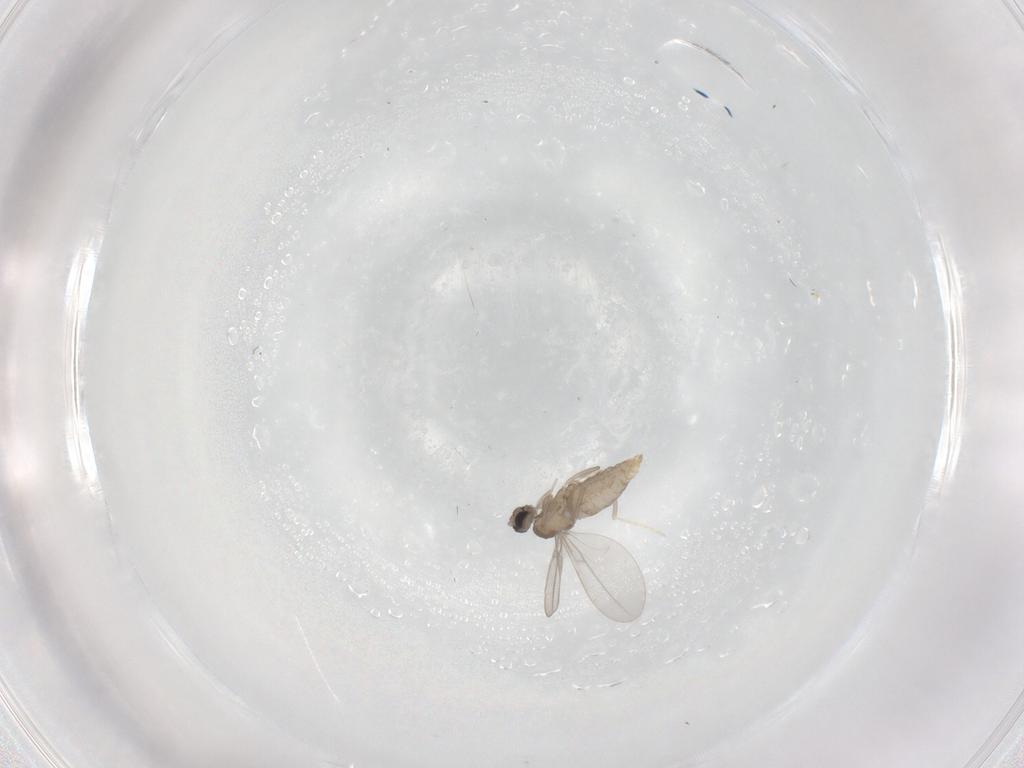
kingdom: Animalia
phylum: Arthropoda
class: Insecta
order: Diptera
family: Cecidomyiidae
